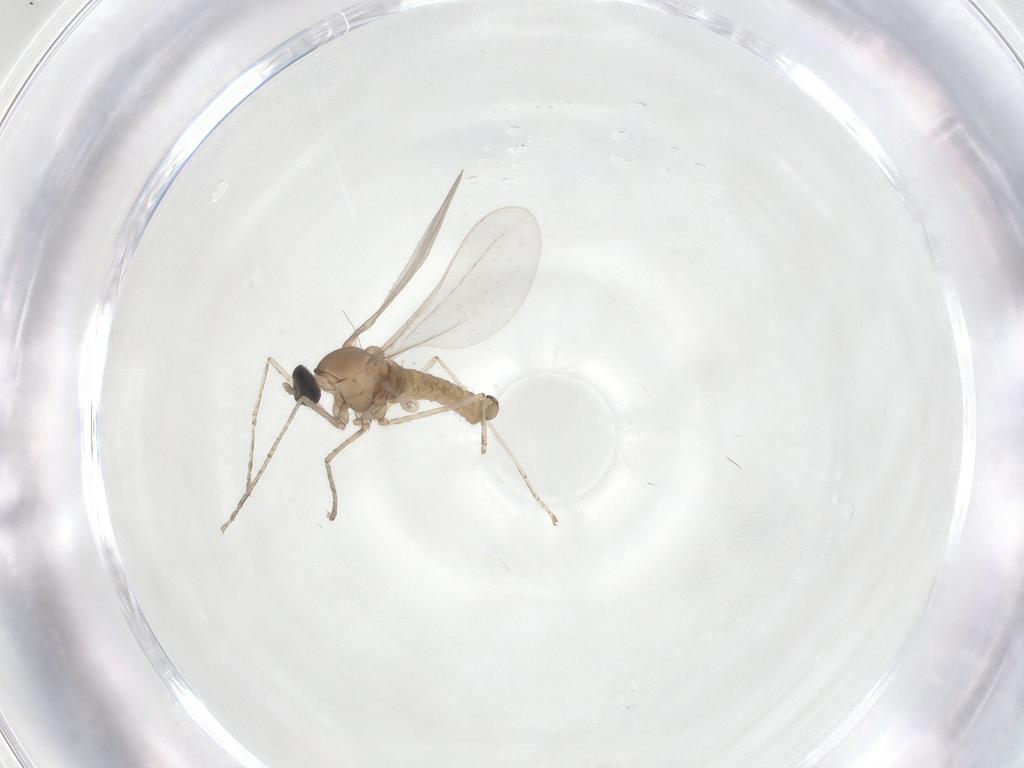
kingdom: Animalia
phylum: Arthropoda
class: Insecta
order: Diptera
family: Cecidomyiidae
